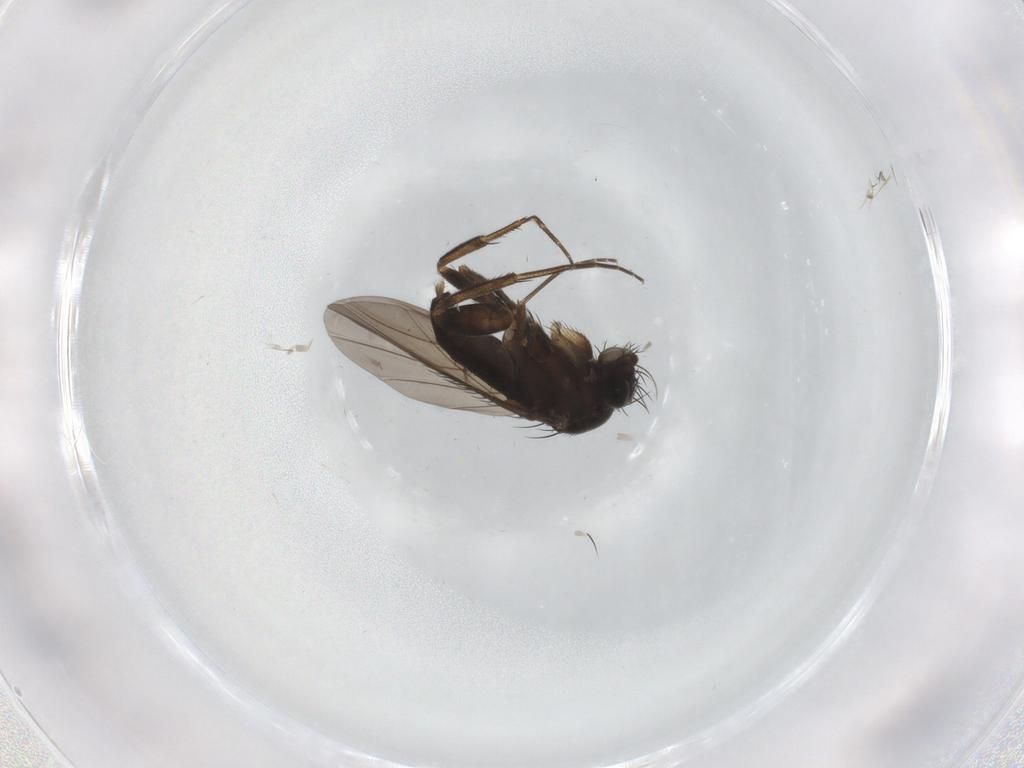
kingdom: Animalia
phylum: Arthropoda
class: Insecta
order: Diptera
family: Phoridae
